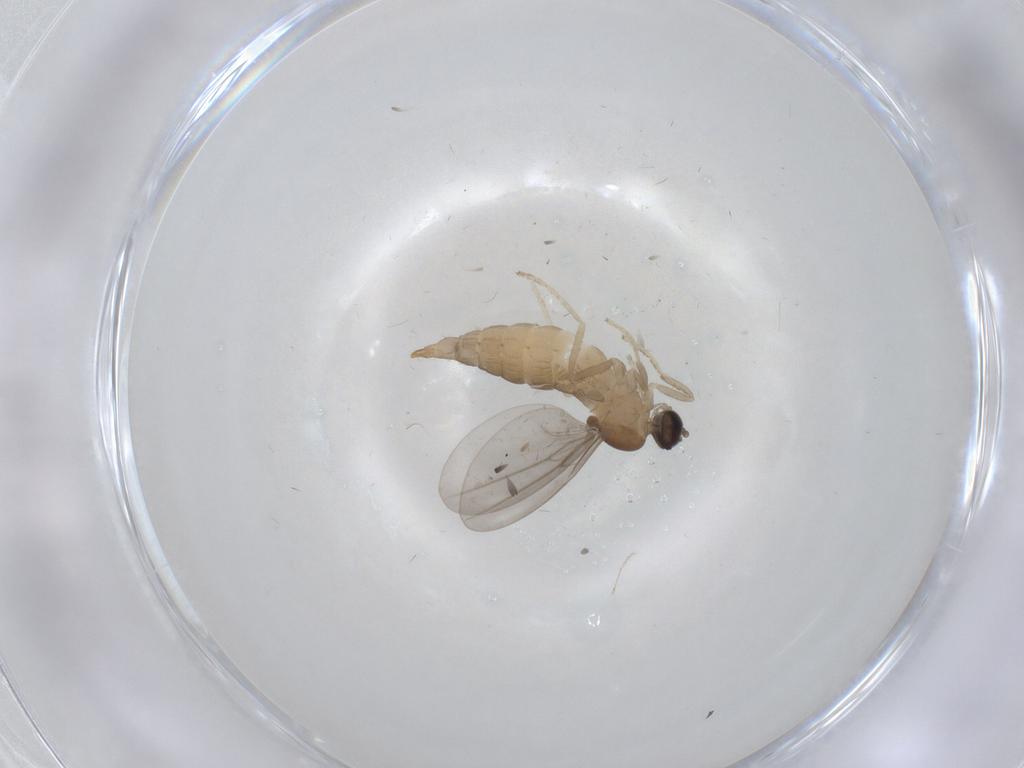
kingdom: Animalia
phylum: Arthropoda
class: Insecta
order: Diptera
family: Cecidomyiidae
